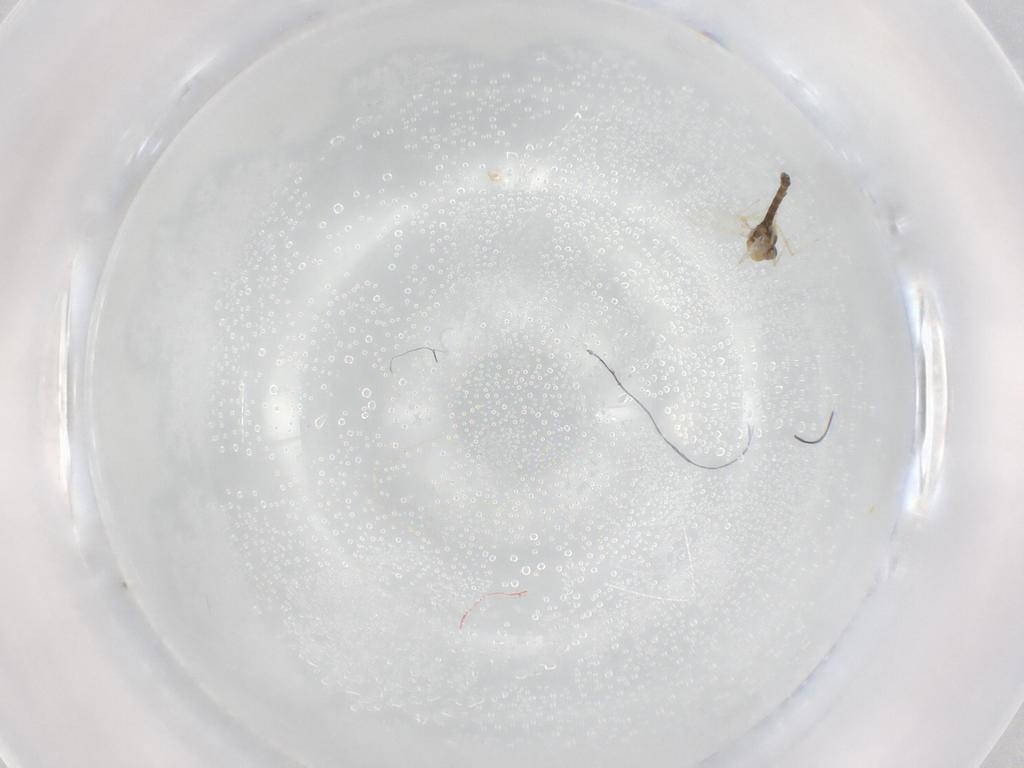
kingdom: Animalia
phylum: Arthropoda
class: Insecta
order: Diptera
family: Chironomidae
